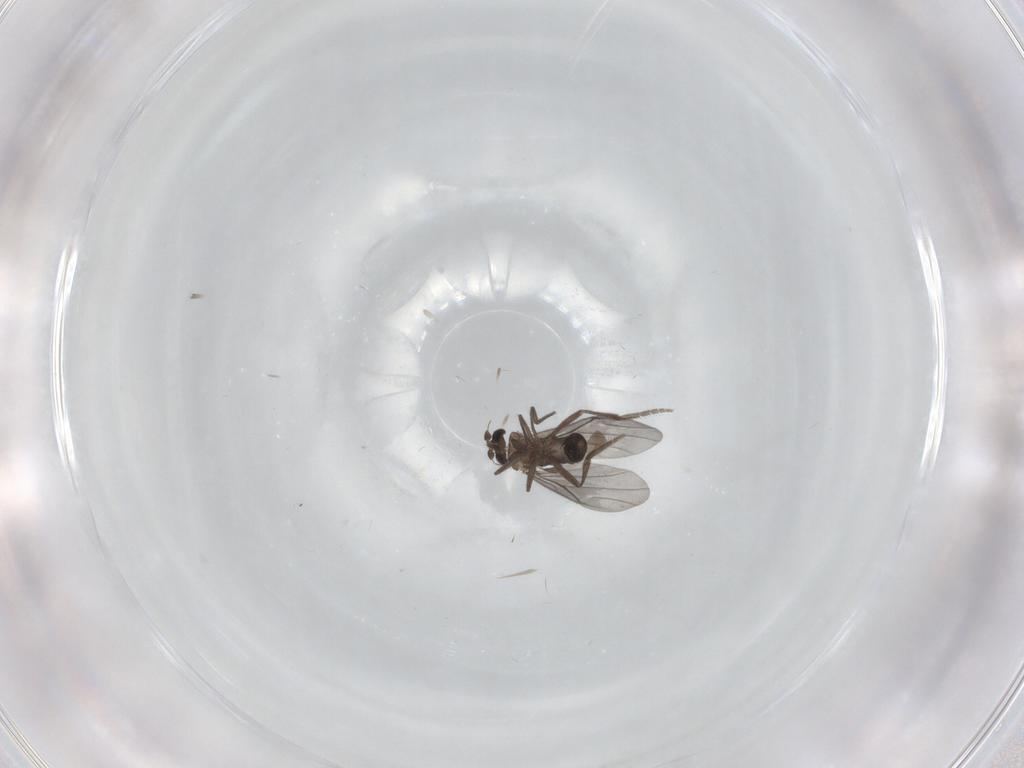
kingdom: Animalia
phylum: Arthropoda
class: Insecta
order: Diptera
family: Phoridae
